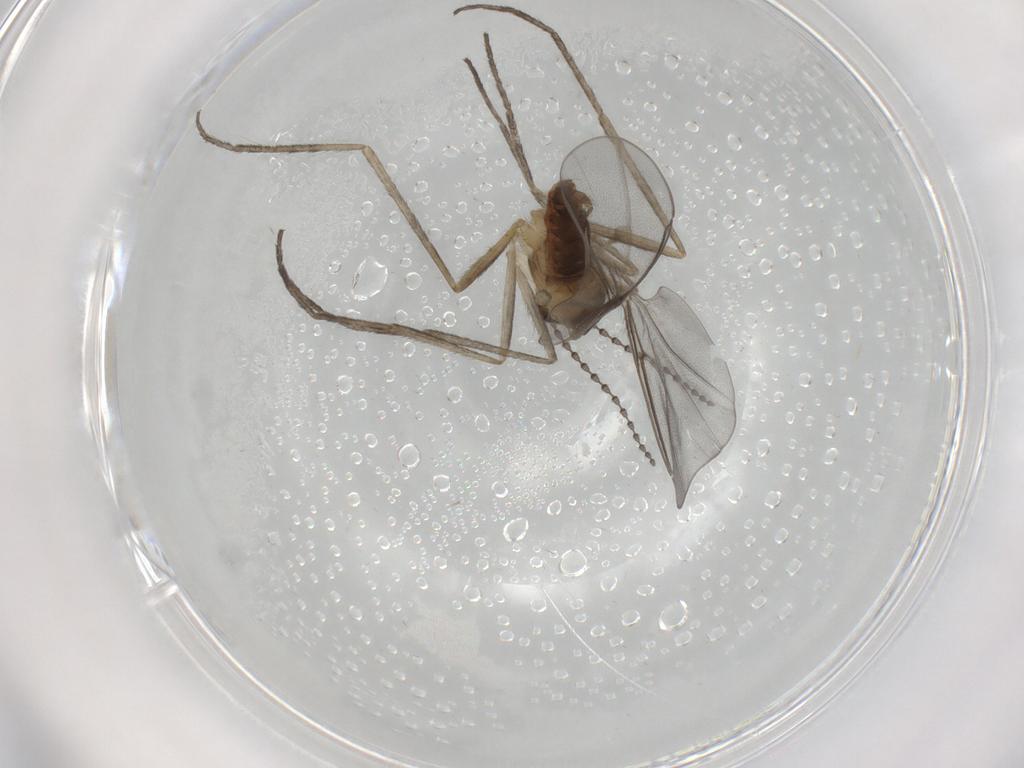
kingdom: Animalia
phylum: Arthropoda
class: Insecta
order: Diptera
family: Cecidomyiidae
